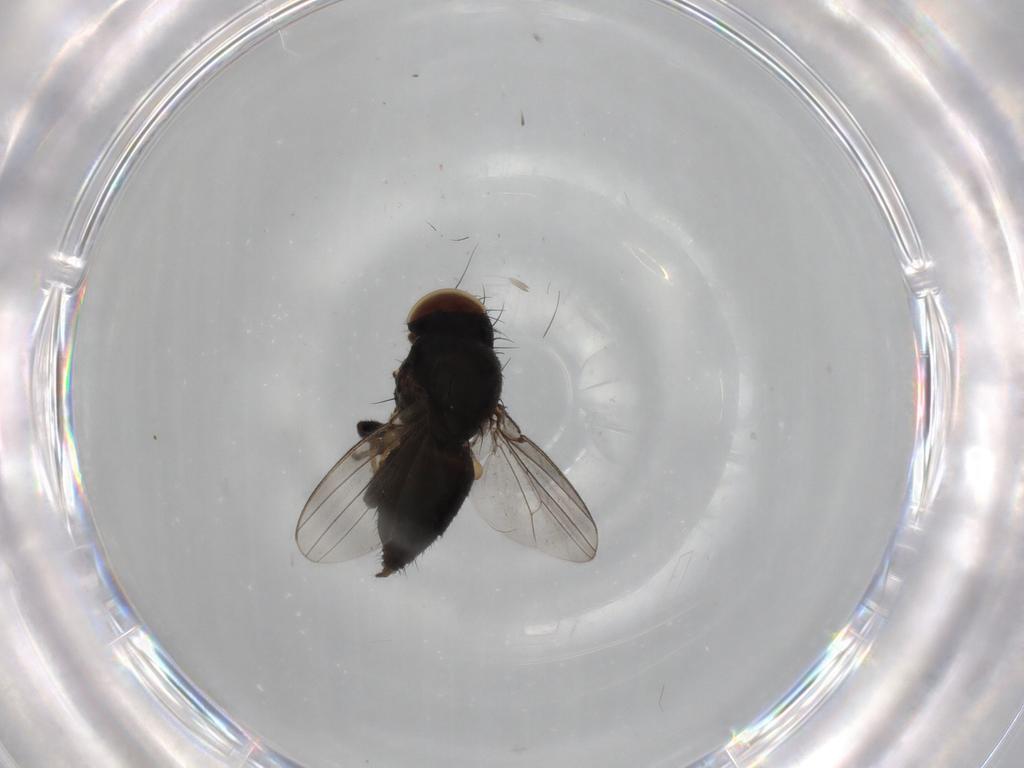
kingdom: Animalia
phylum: Arthropoda
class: Insecta
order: Diptera
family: Milichiidae
